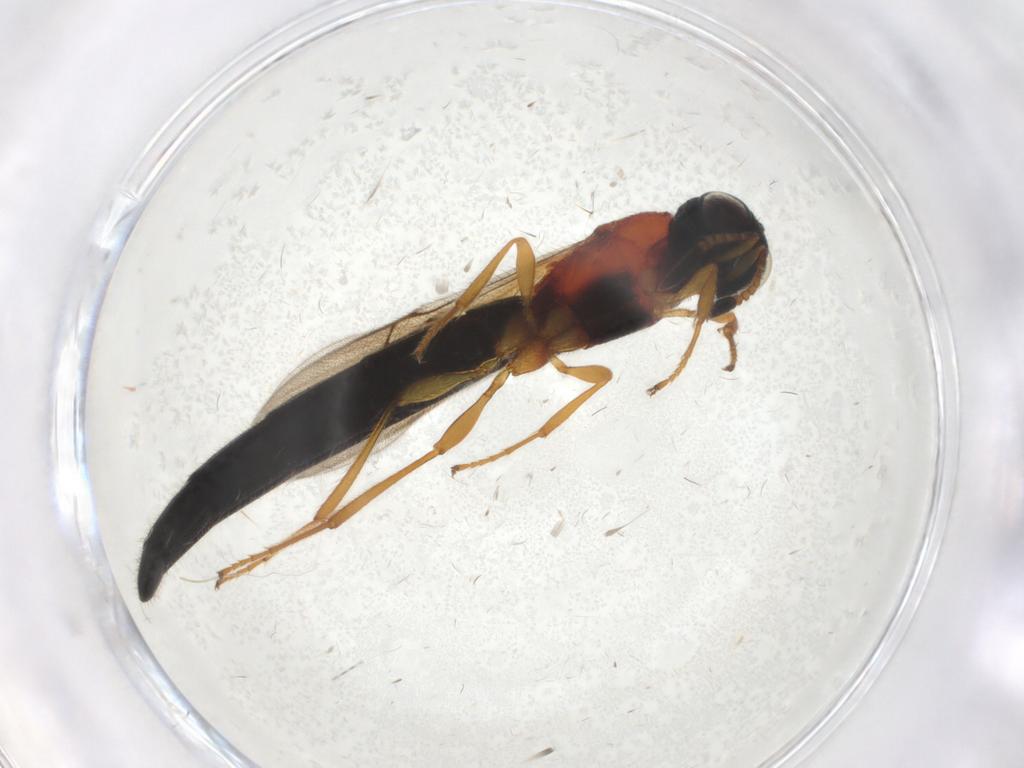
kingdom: Animalia
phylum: Arthropoda
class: Insecta
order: Hymenoptera
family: Scelionidae
